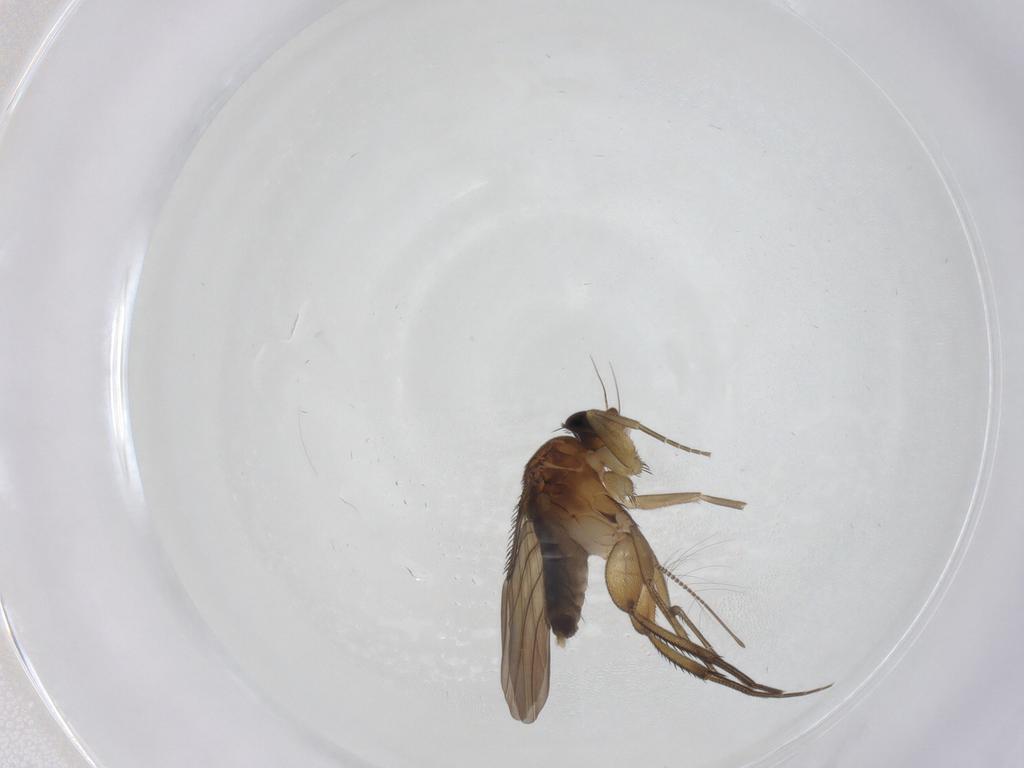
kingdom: Animalia
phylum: Arthropoda
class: Insecta
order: Diptera
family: Phoridae
